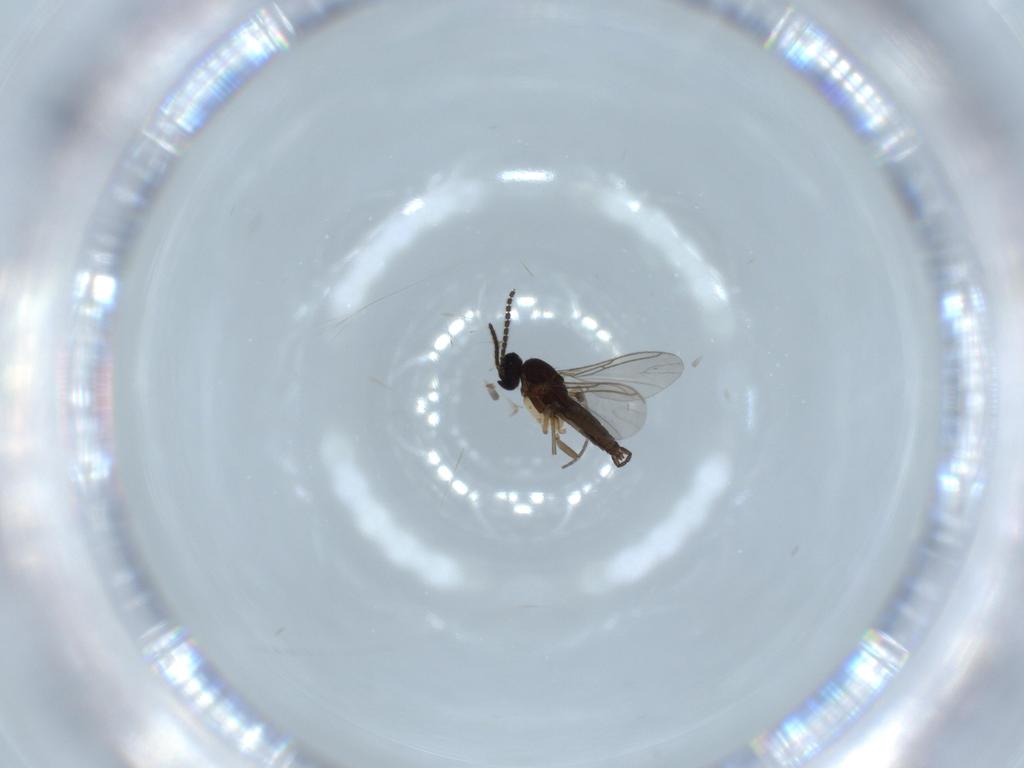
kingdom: Animalia
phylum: Arthropoda
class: Insecta
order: Diptera
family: Sciaridae
